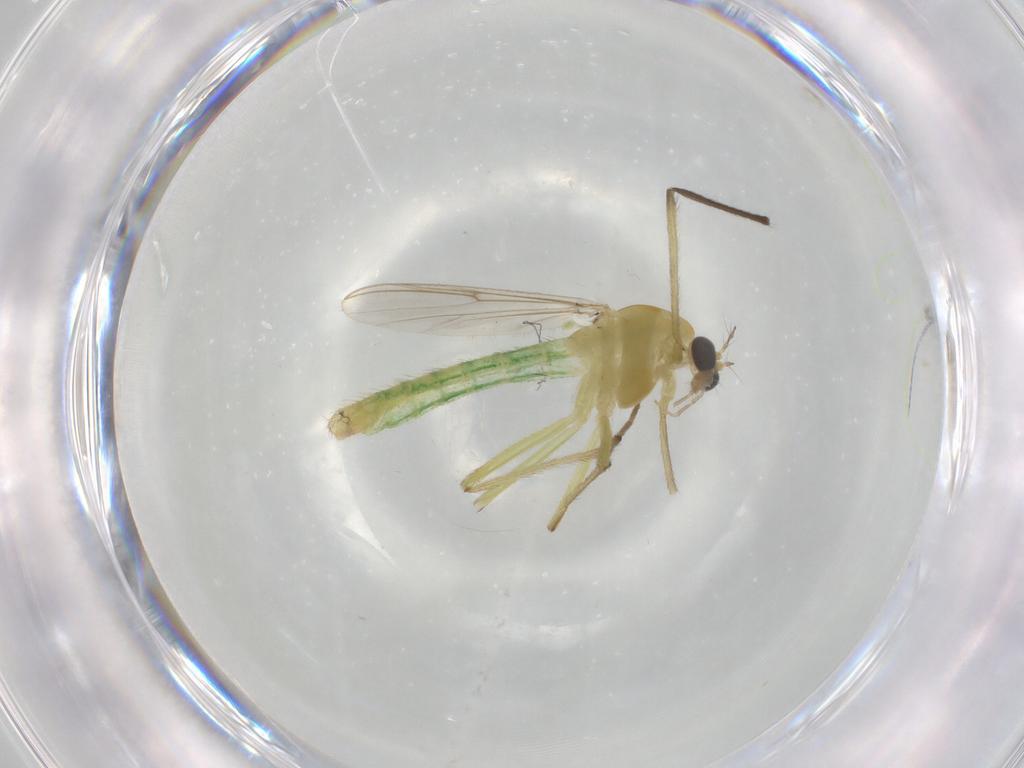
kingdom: Animalia
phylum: Arthropoda
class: Insecta
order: Diptera
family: Chironomidae
